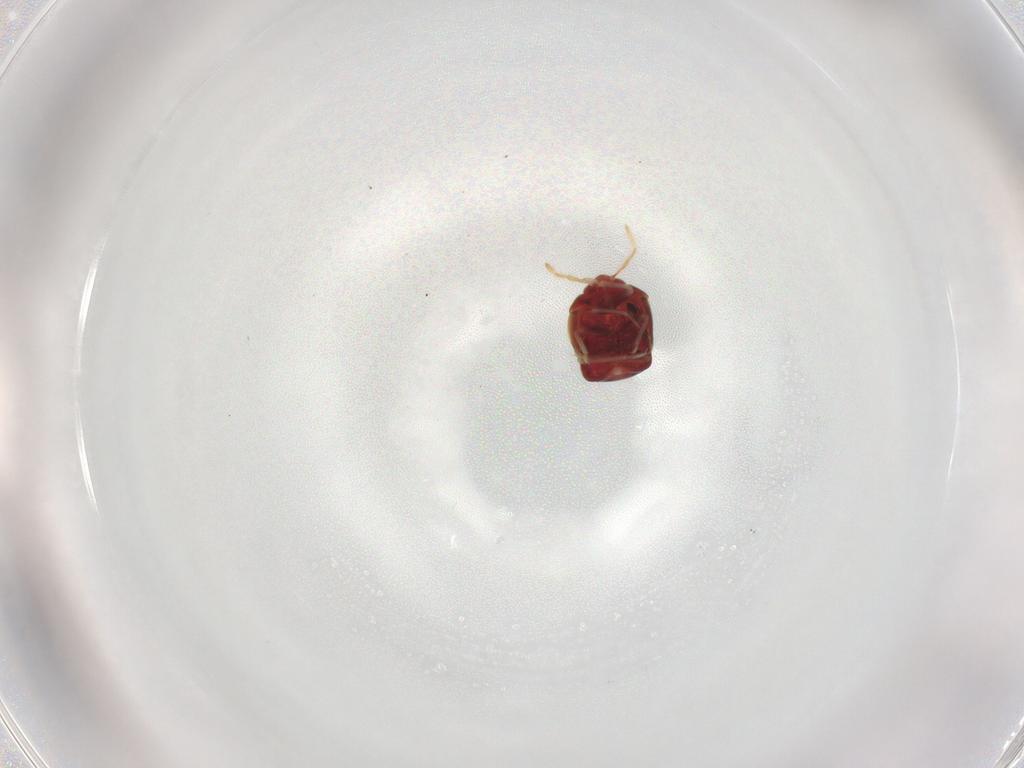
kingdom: Animalia
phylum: Arthropoda
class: Insecta
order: Hemiptera
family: Anthocoridae
